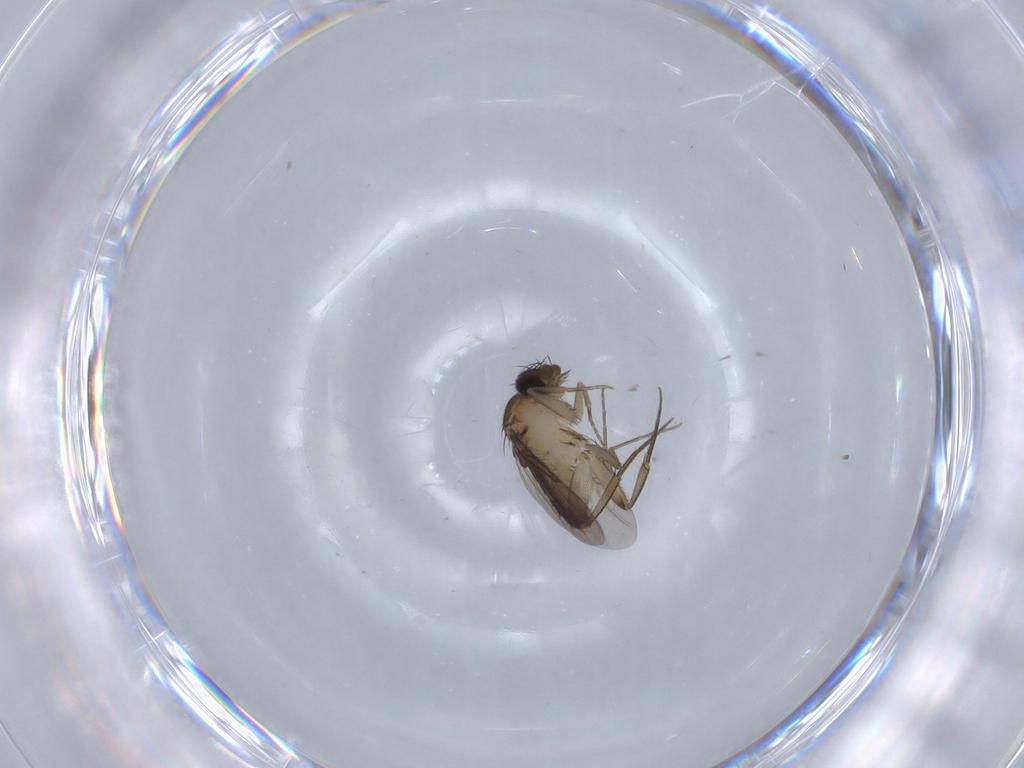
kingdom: Animalia
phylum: Arthropoda
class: Insecta
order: Diptera
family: Phoridae
